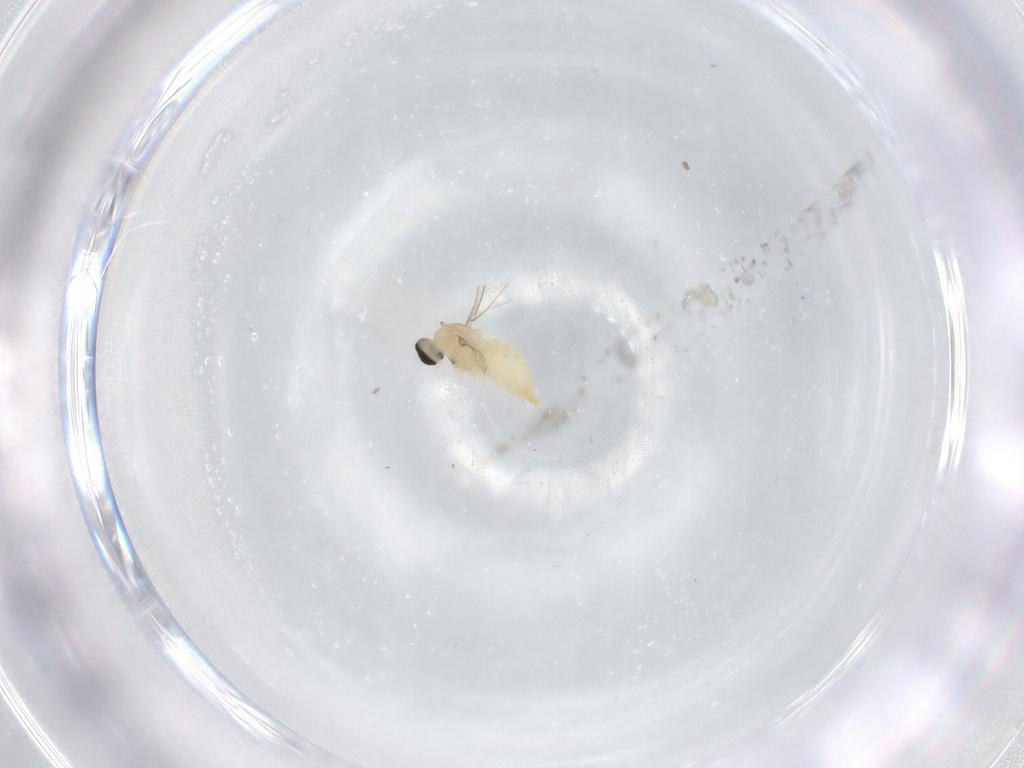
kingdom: Animalia
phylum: Arthropoda
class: Insecta
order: Diptera
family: Cecidomyiidae
